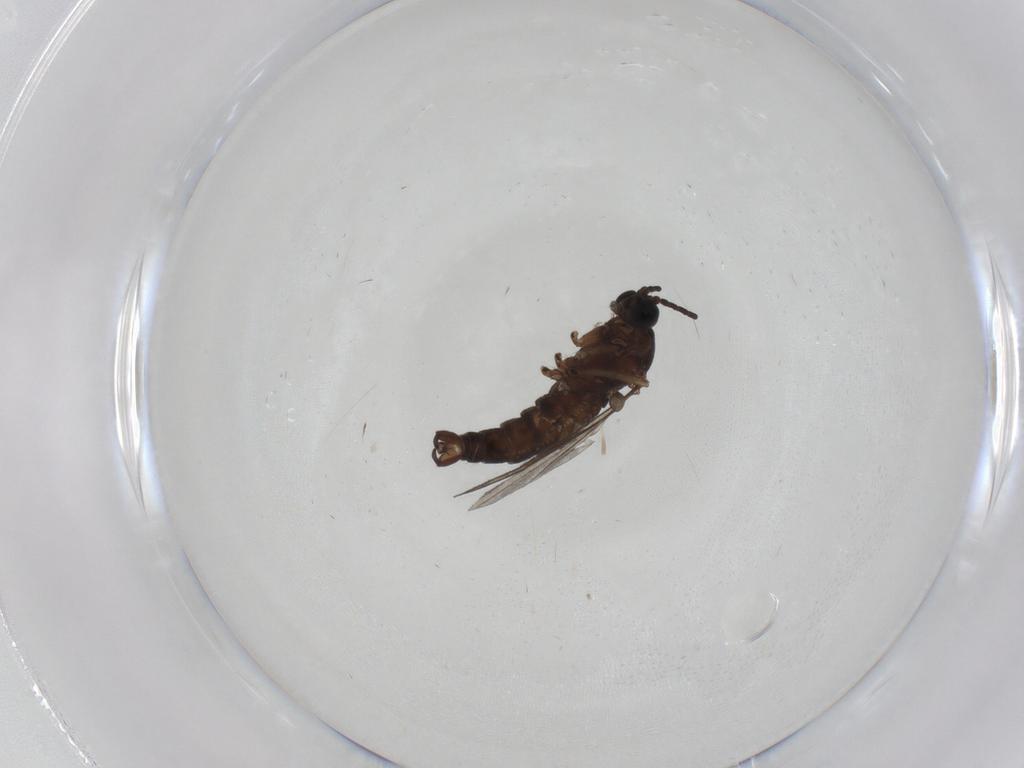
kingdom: Animalia
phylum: Arthropoda
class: Insecta
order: Diptera
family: Sciaridae
